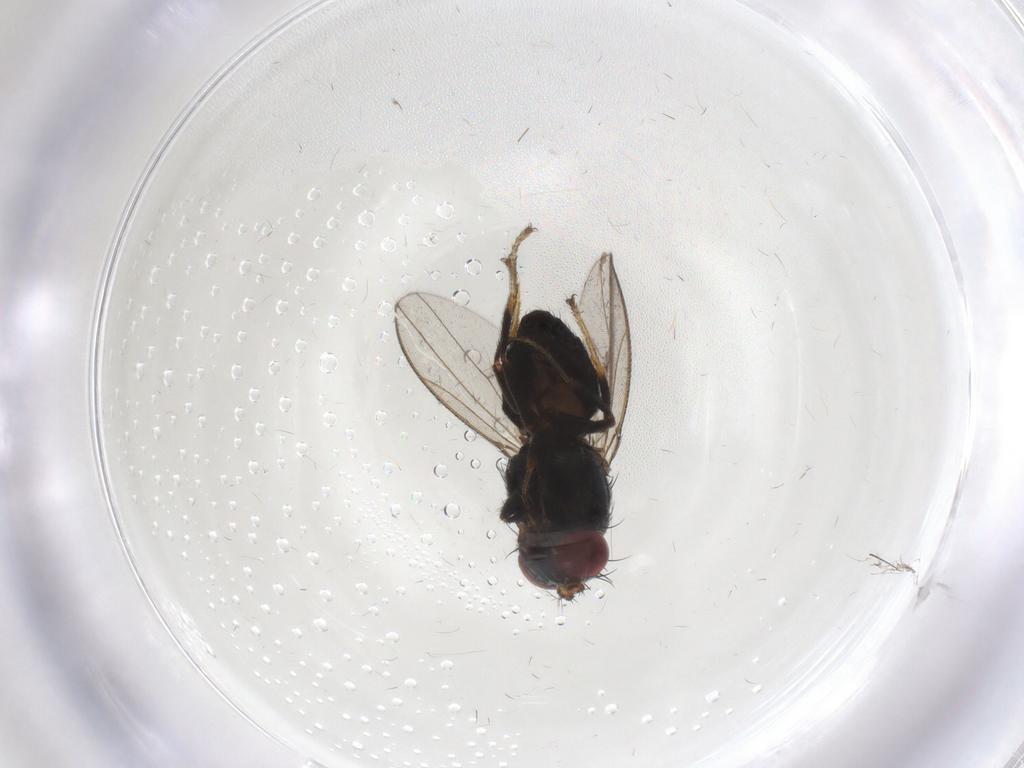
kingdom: Animalia
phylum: Arthropoda
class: Insecta
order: Diptera
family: Ephydridae
